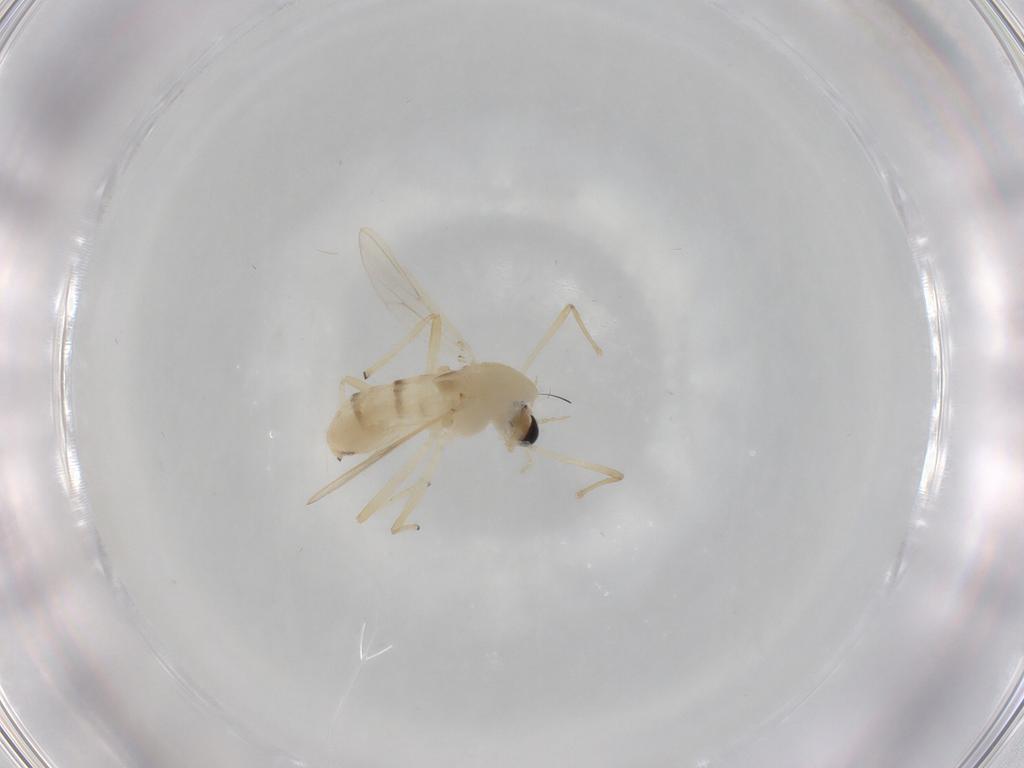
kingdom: Animalia
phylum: Arthropoda
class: Insecta
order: Diptera
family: Chironomidae
